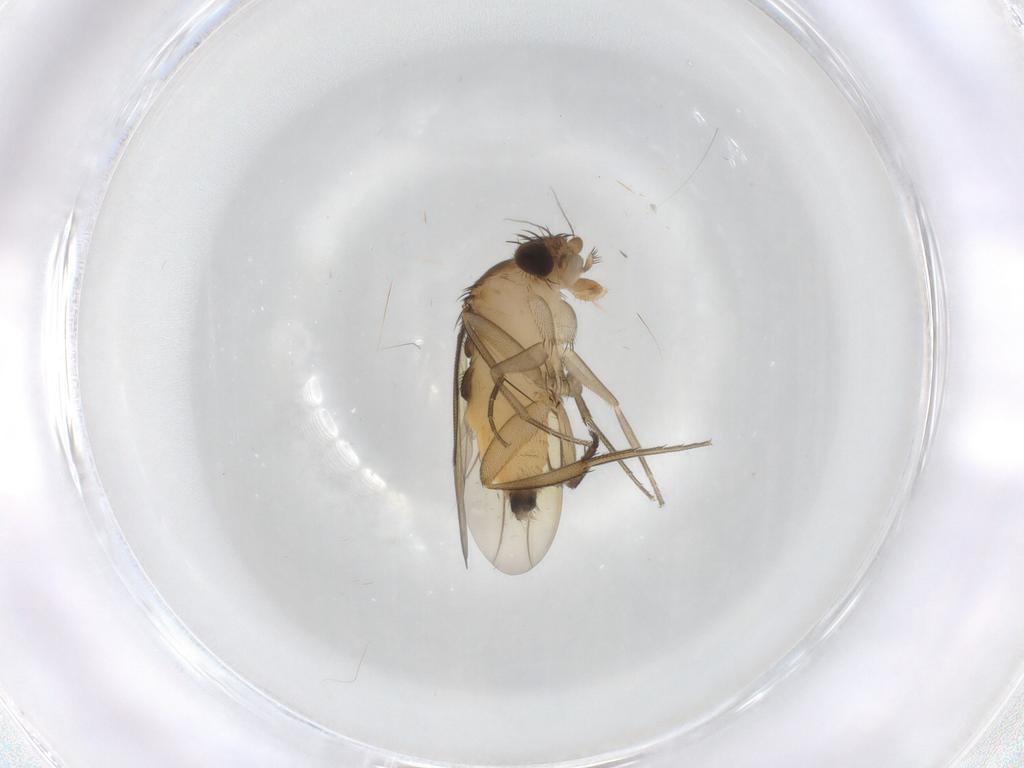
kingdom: Animalia
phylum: Arthropoda
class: Insecta
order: Diptera
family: Phoridae
